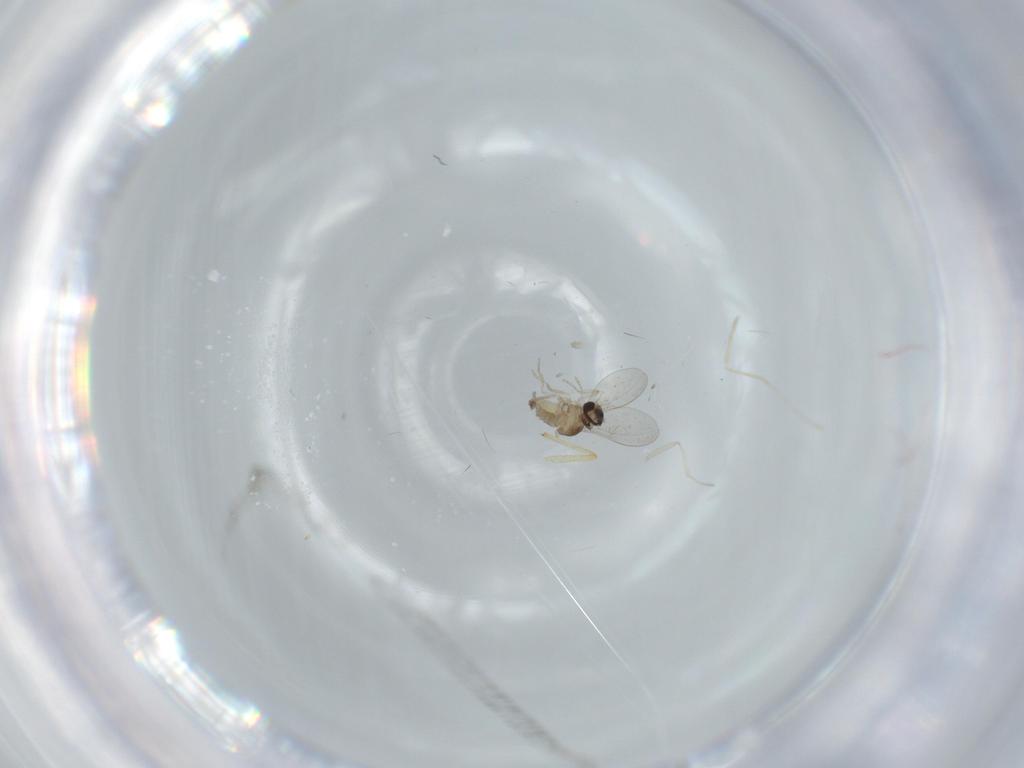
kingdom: Animalia
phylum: Arthropoda
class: Insecta
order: Diptera
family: Cecidomyiidae
